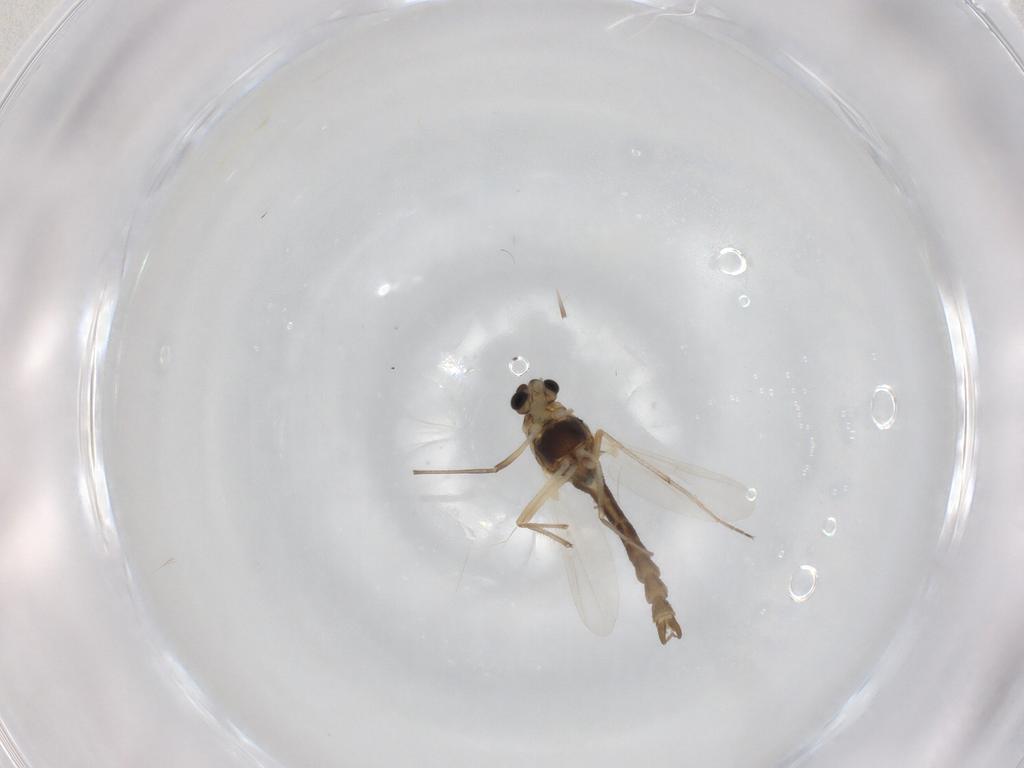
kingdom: Animalia
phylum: Arthropoda
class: Insecta
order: Diptera
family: Chironomidae
